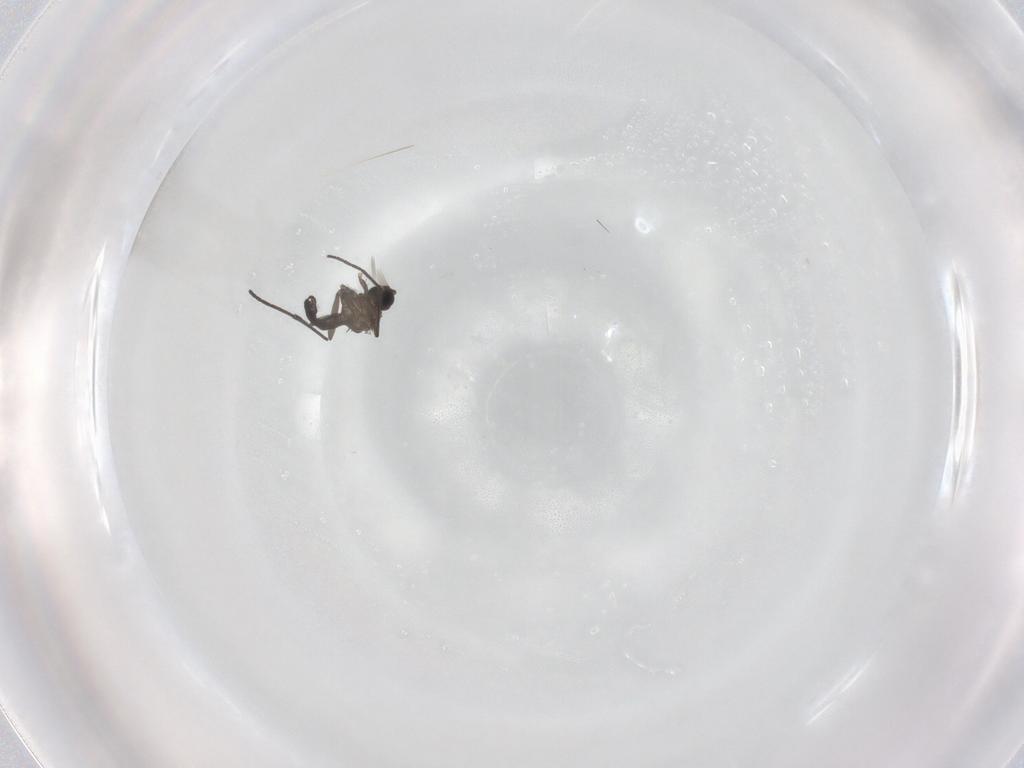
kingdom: Animalia
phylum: Arthropoda
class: Insecta
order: Diptera
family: Sciaridae
